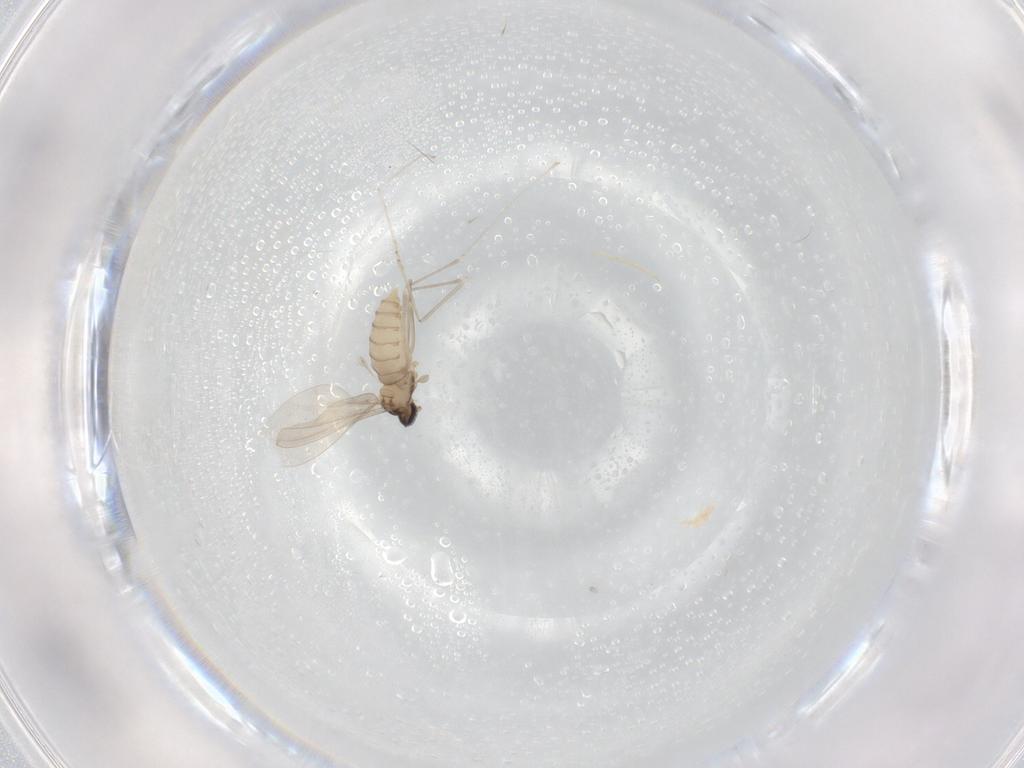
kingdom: Animalia
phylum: Arthropoda
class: Insecta
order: Diptera
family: Cecidomyiidae
